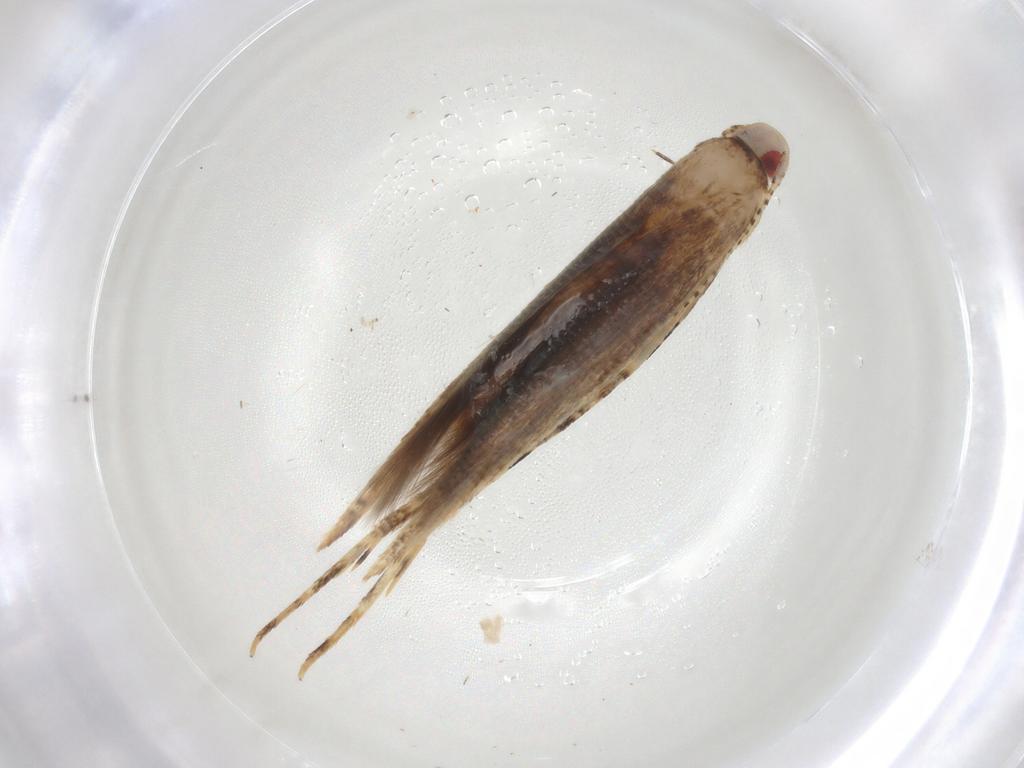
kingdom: Animalia
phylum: Arthropoda
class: Insecta
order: Lepidoptera
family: Cosmopterigidae
